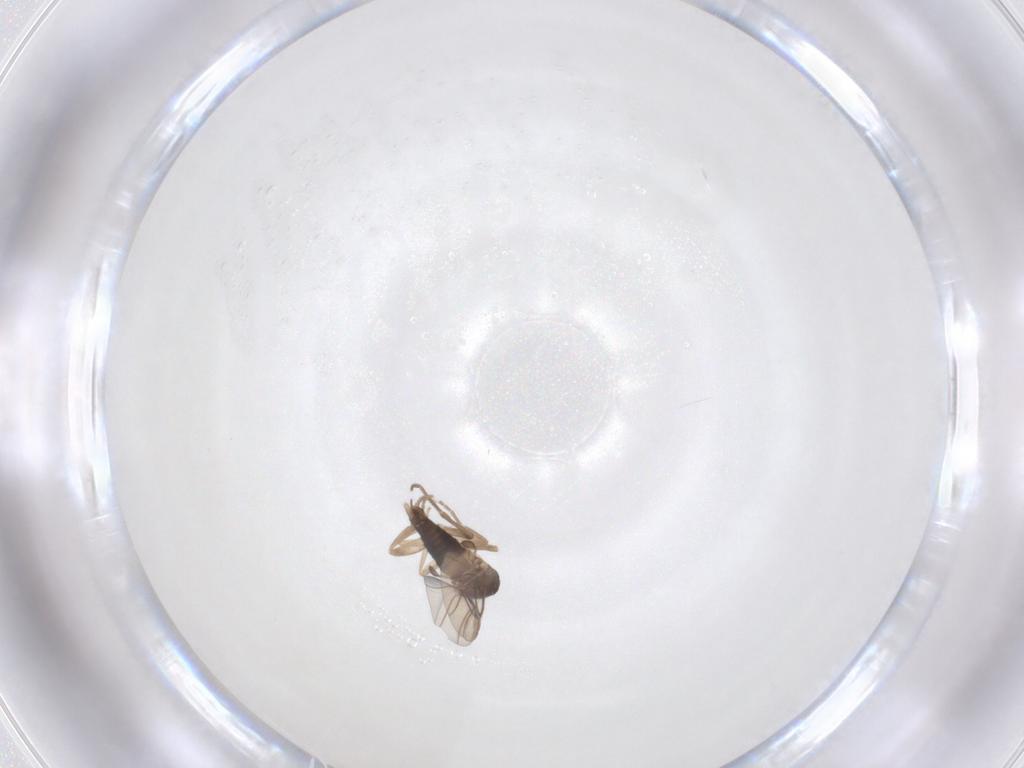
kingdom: Animalia
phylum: Arthropoda
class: Insecta
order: Diptera
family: Phoridae
